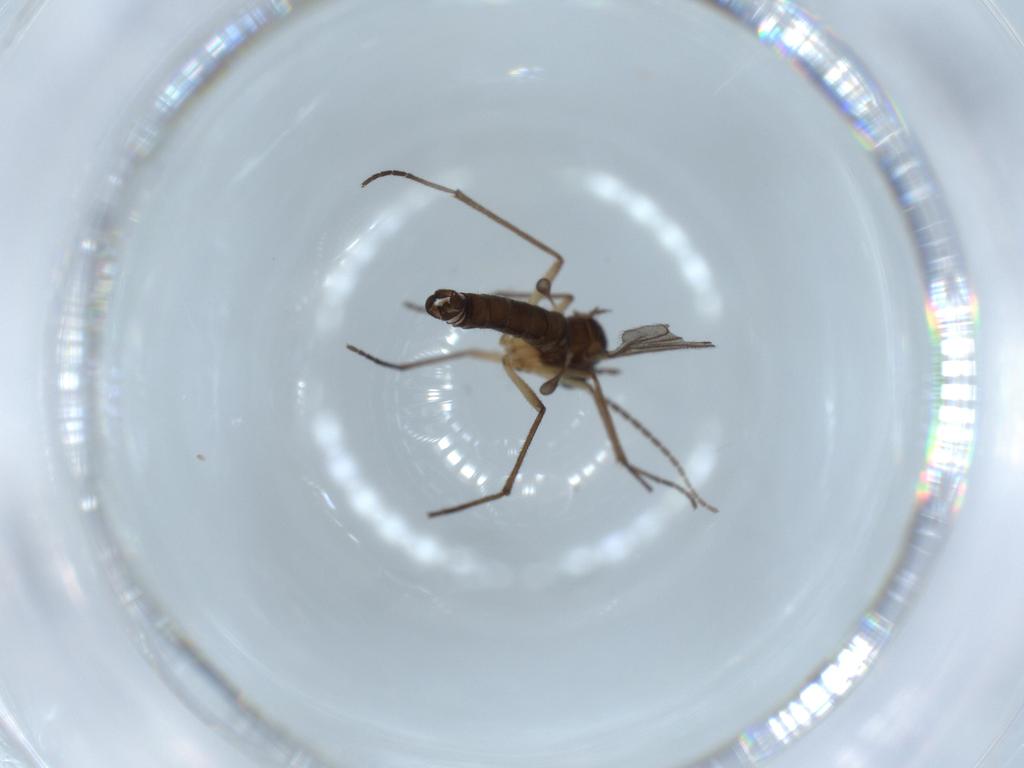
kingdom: Animalia
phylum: Arthropoda
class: Insecta
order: Diptera
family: Sciaridae
